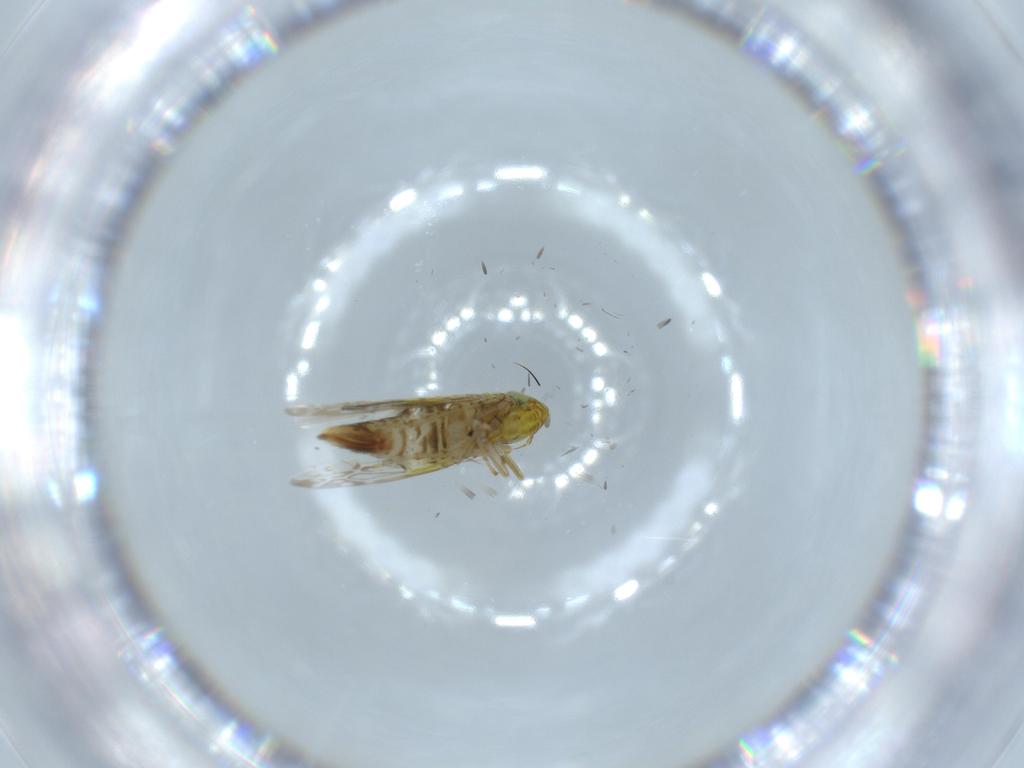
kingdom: Animalia
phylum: Arthropoda
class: Insecta
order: Hemiptera
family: Cicadellidae
